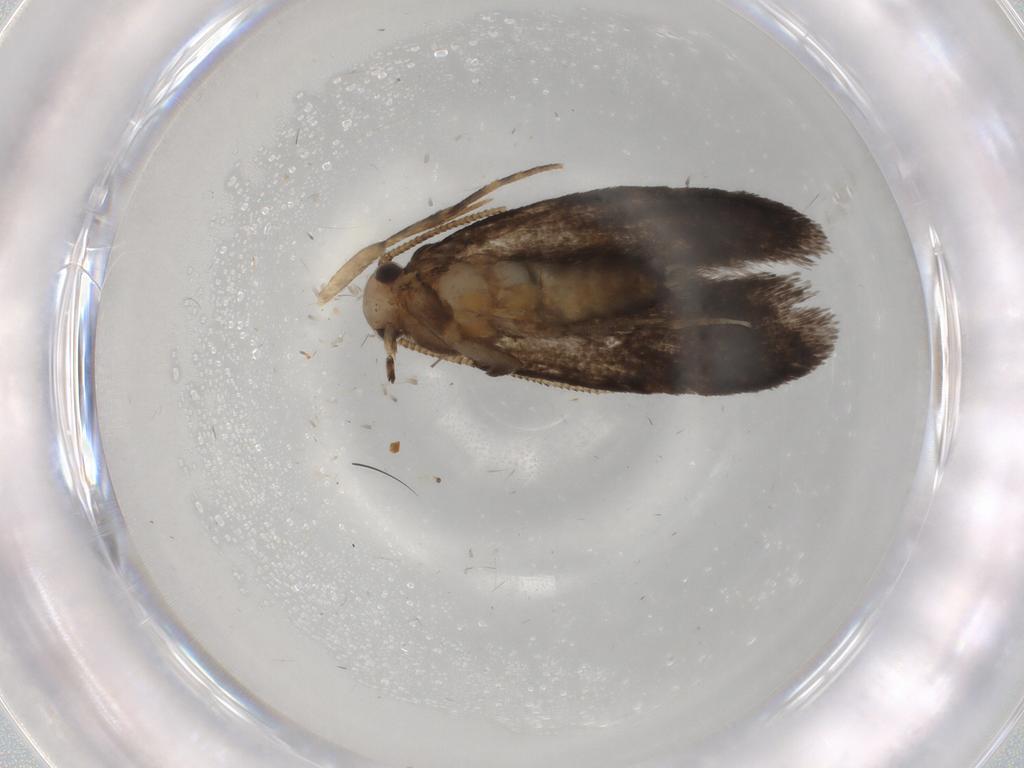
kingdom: Animalia
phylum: Arthropoda
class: Insecta
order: Lepidoptera
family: Tineidae
